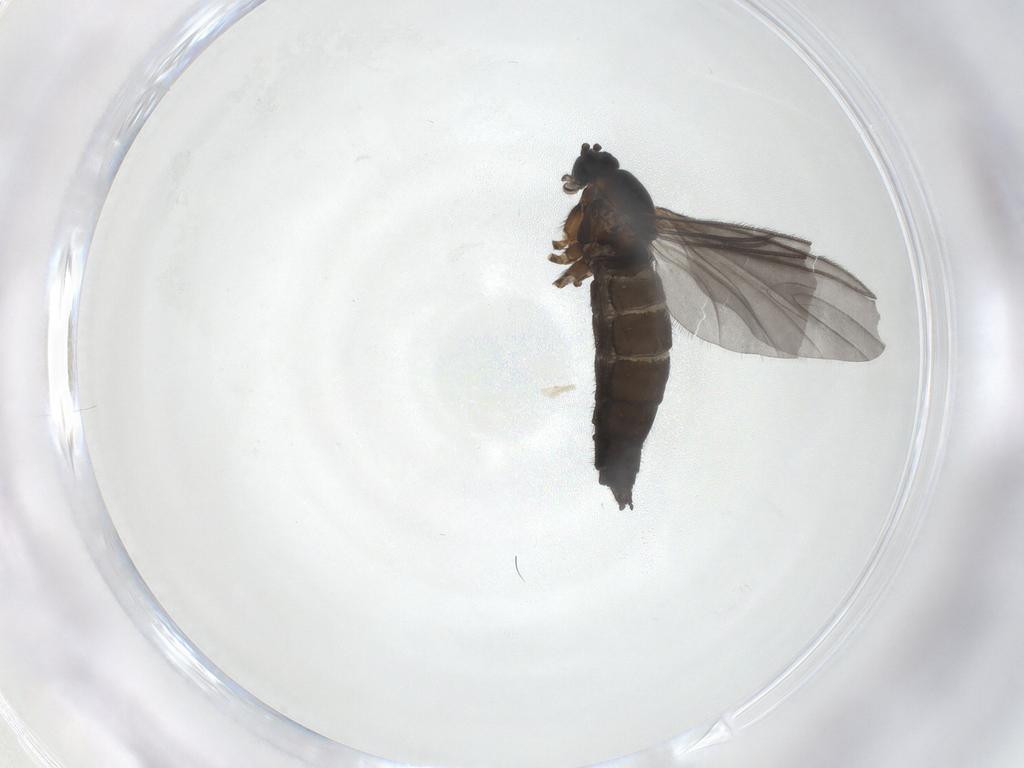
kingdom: Animalia
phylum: Arthropoda
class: Insecta
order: Diptera
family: Sciaridae
